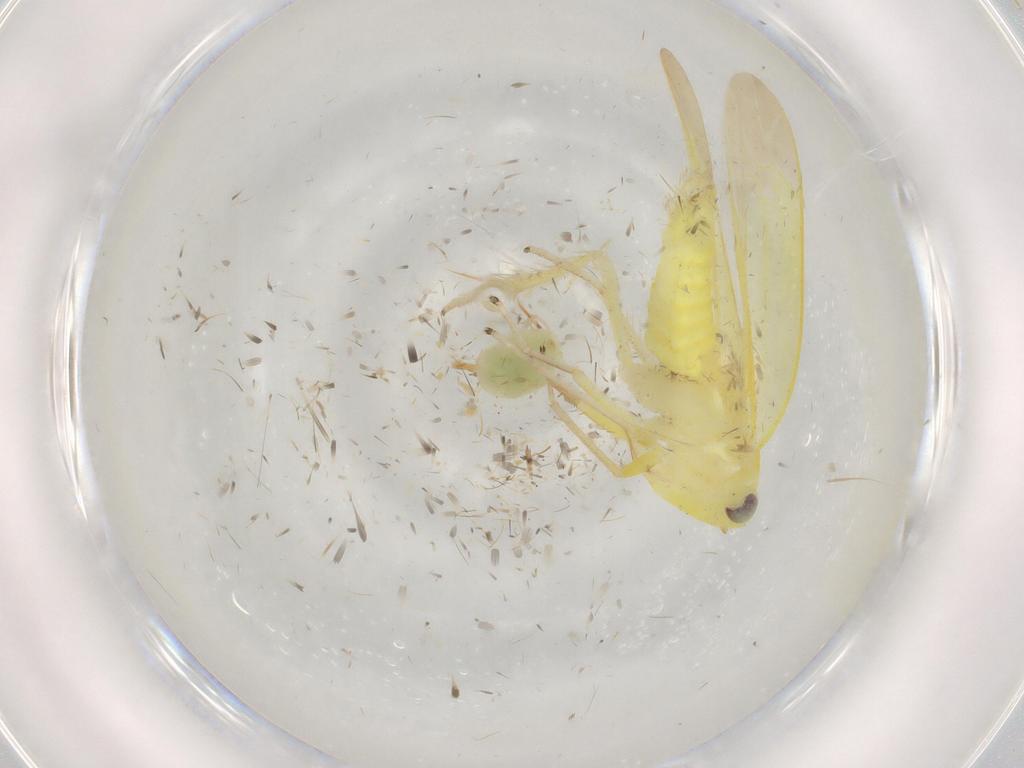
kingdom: Animalia
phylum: Arthropoda
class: Insecta
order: Hemiptera
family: Cicadellidae
